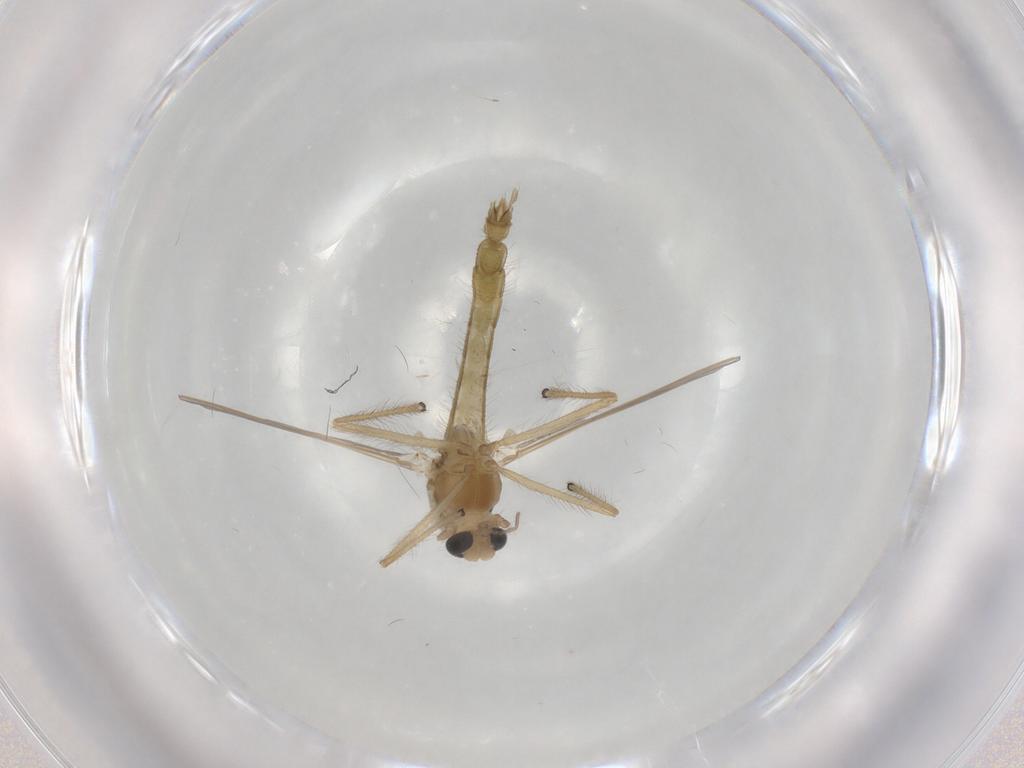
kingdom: Animalia
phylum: Arthropoda
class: Insecta
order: Diptera
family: Chironomidae
